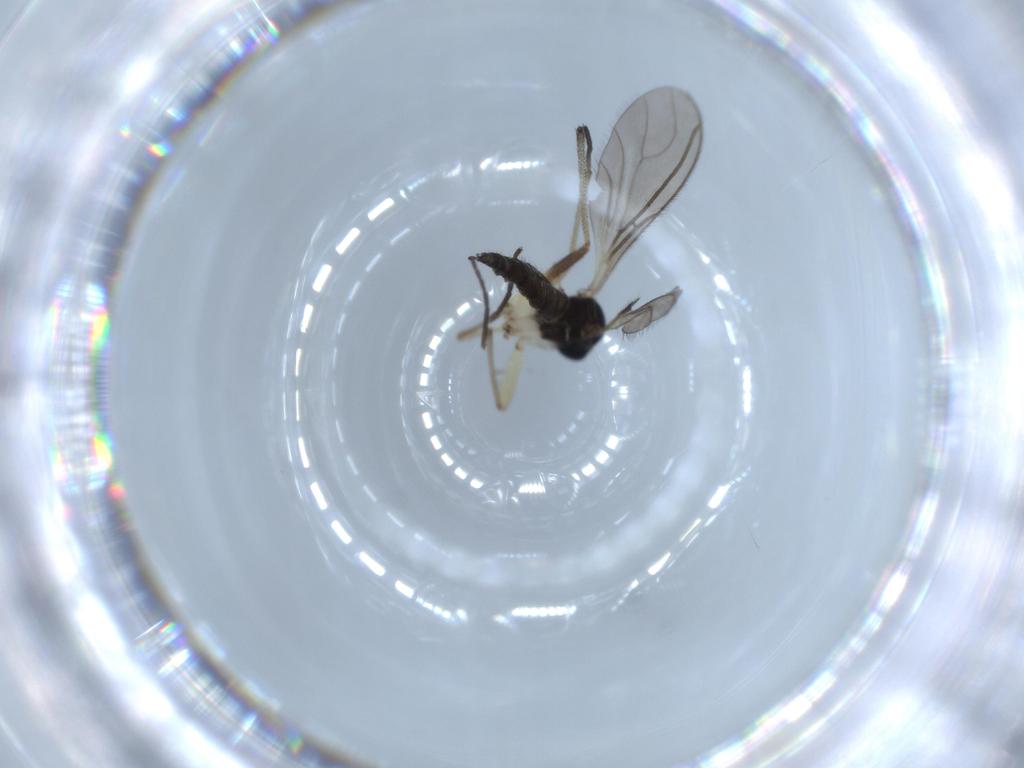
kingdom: Animalia
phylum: Arthropoda
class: Insecta
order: Diptera
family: Sciaridae
